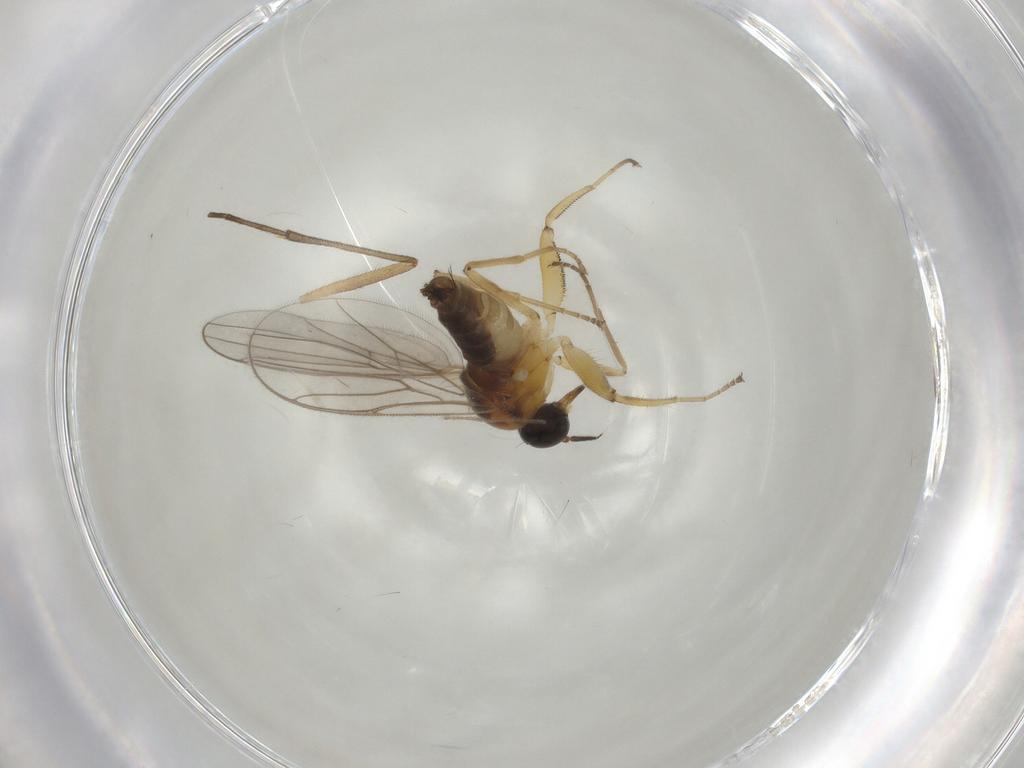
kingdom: Animalia
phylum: Arthropoda
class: Insecta
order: Diptera
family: Hybotidae
